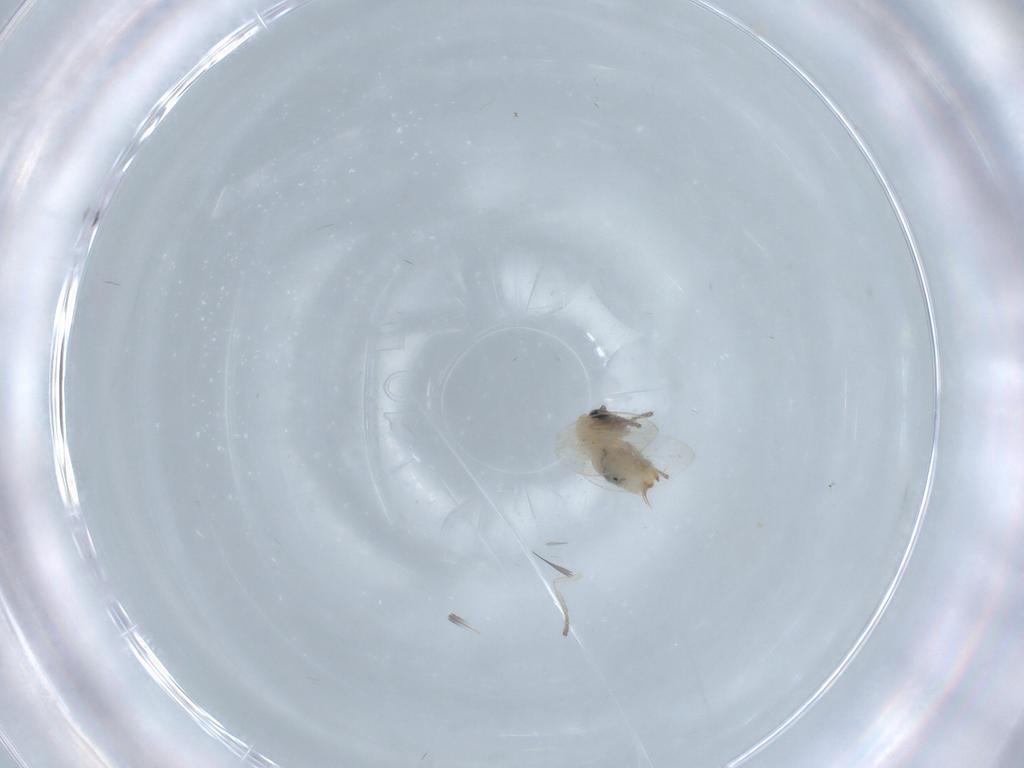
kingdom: Animalia
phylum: Arthropoda
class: Insecta
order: Diptera
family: Psychodidae
